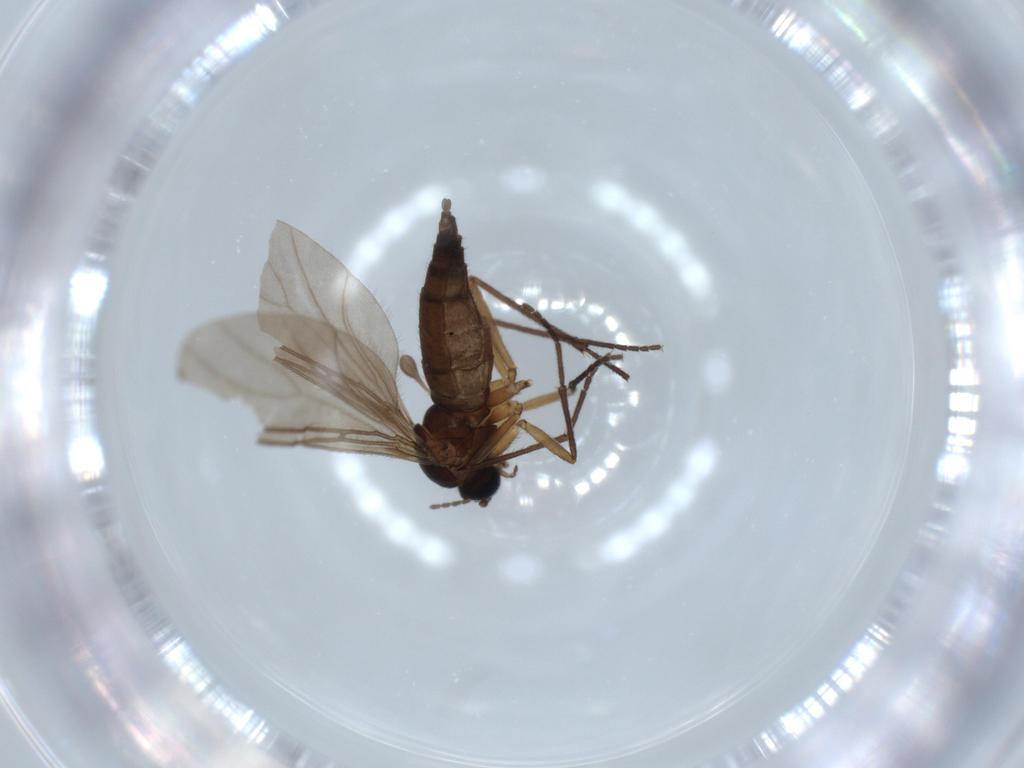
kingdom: Animalia
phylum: Arthropoda
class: Insecta
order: Diptera
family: Sciaridae
